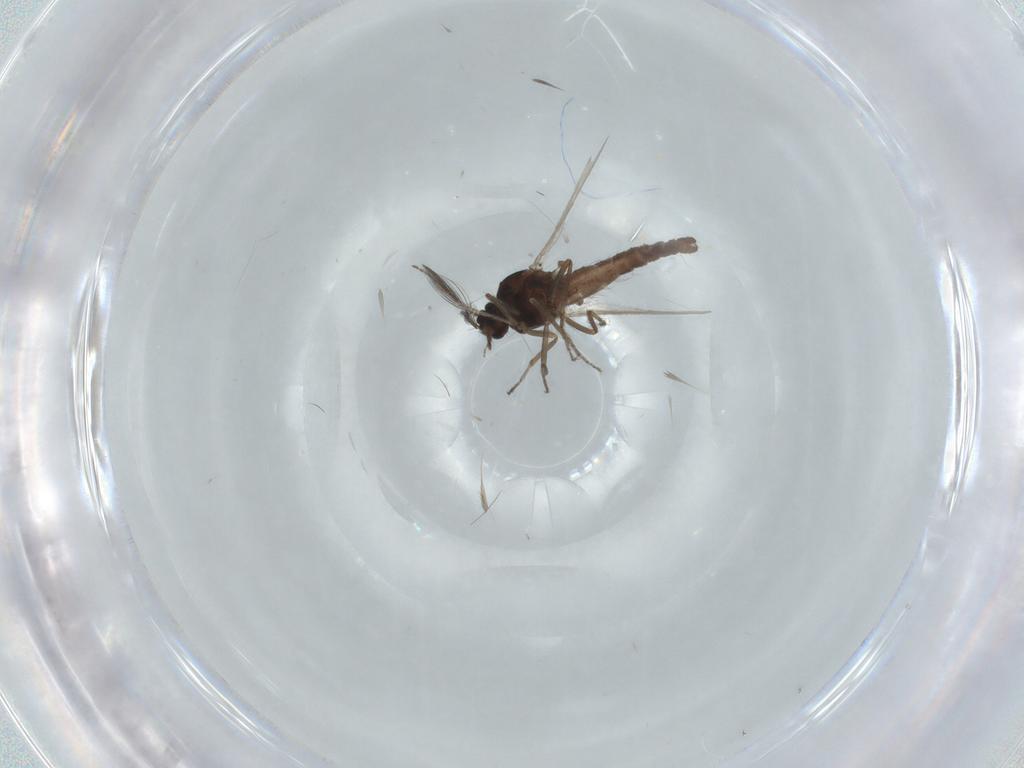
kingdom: Animalia
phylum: Arthropoda
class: Insecta
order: Diptera
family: Ceratopogonidae
